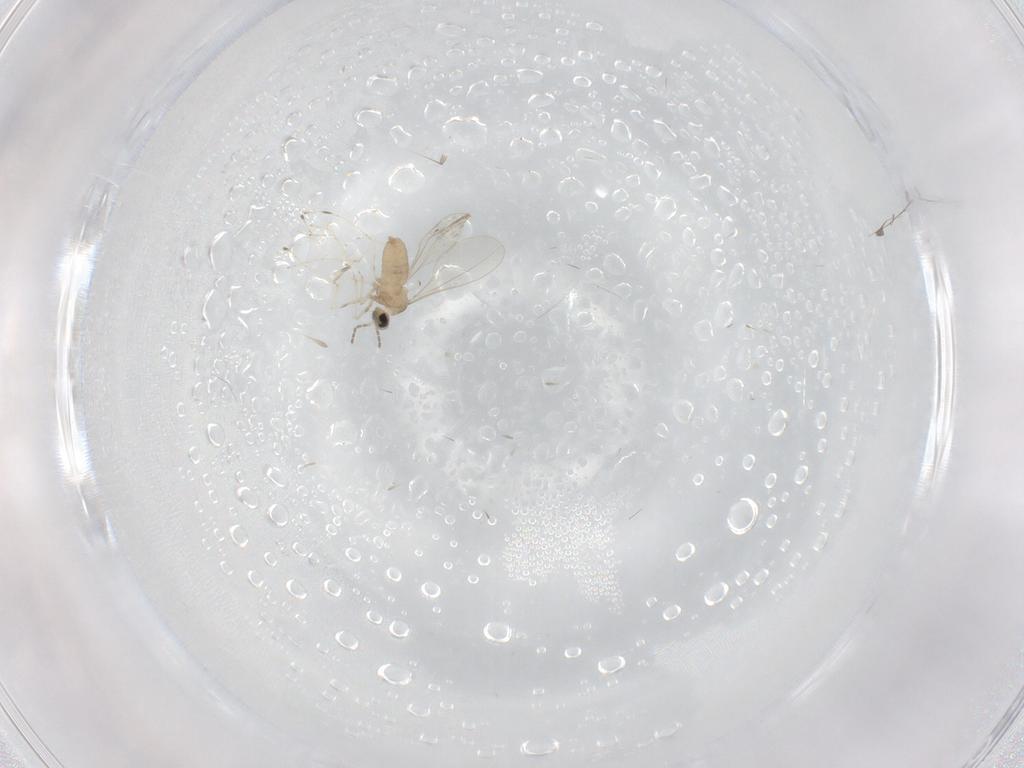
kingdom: Animalia
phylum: Arthropoda
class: Insecta
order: Diptera
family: Cecidomyiidae
